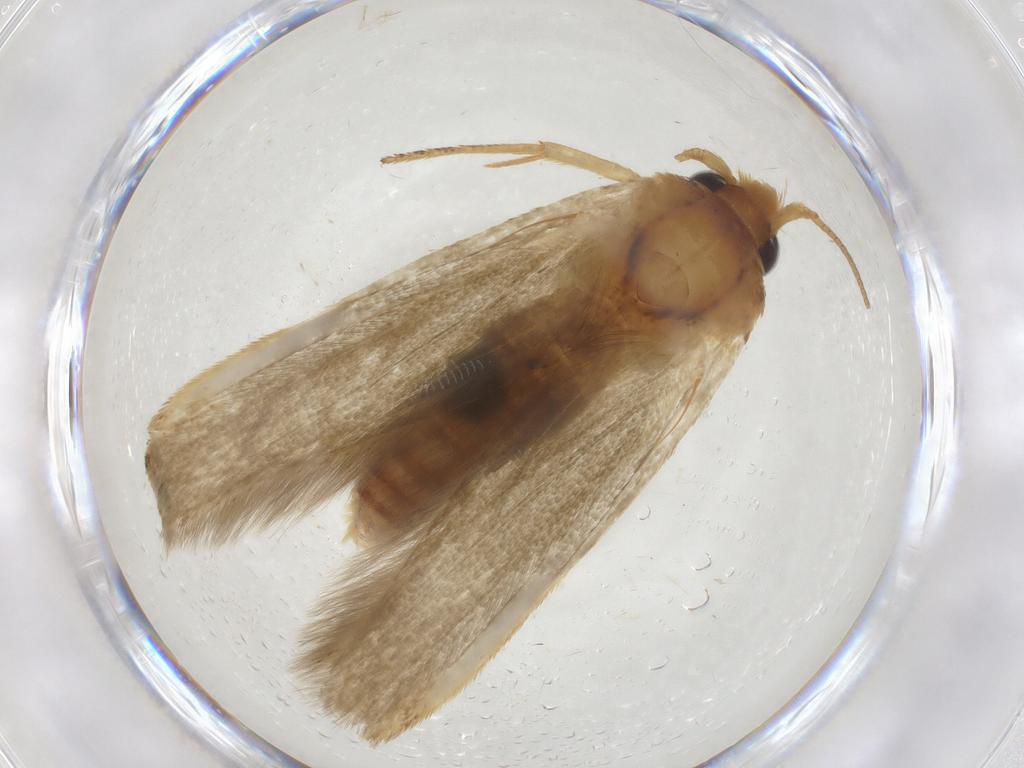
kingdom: Animalia
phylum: Arthropoda
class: Insecta
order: Lepidoptera
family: Blastobasidae
